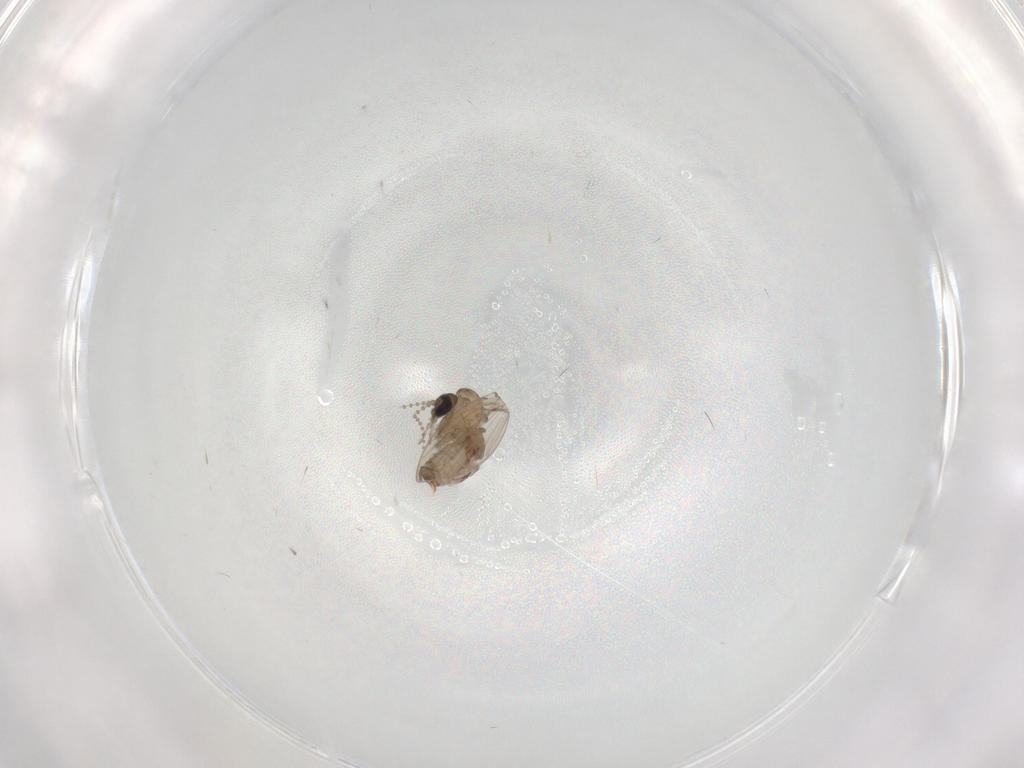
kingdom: Animalia
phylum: Arthropoda
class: Insecta
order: Diptera
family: Psychodidae
